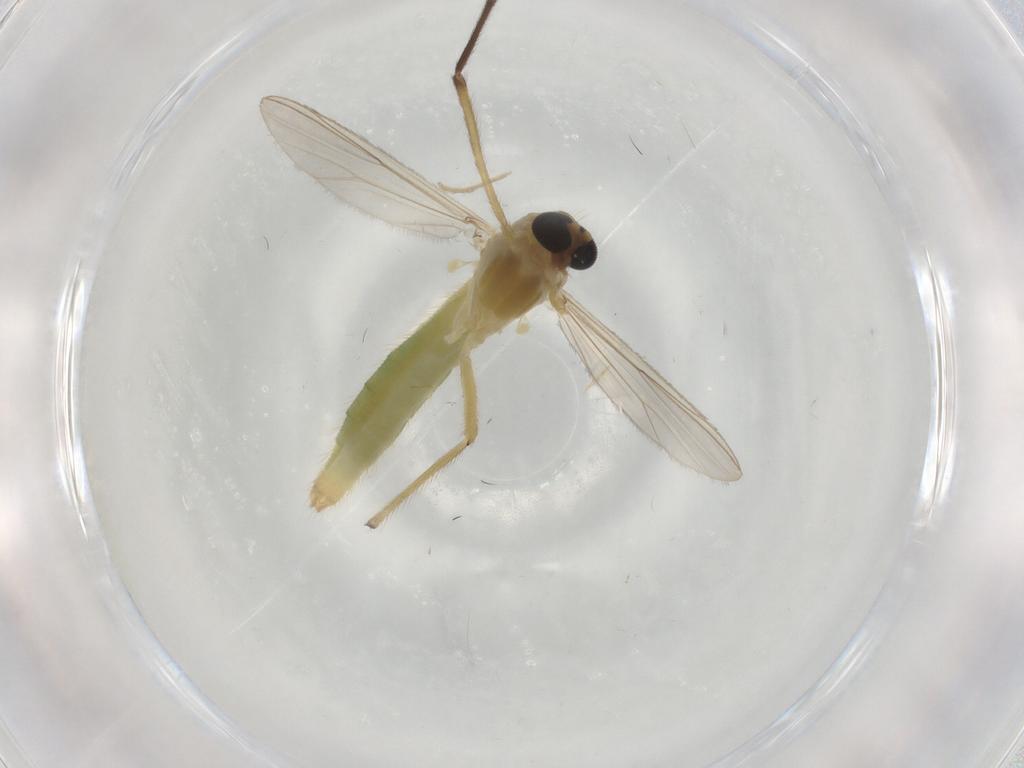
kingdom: Animalia
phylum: Arthropoda
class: Insecta
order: Diptera
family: Chironomidae
